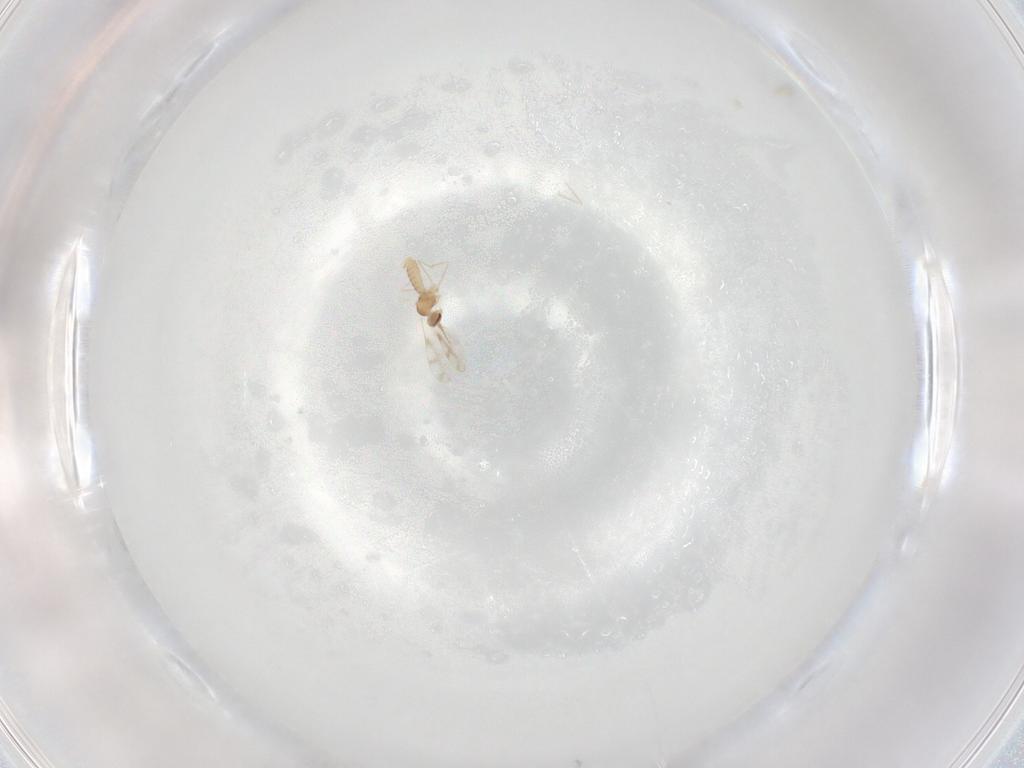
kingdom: Animalia
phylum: Arthropoda
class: Insecta
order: Diptera
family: Cecidomyiidae
